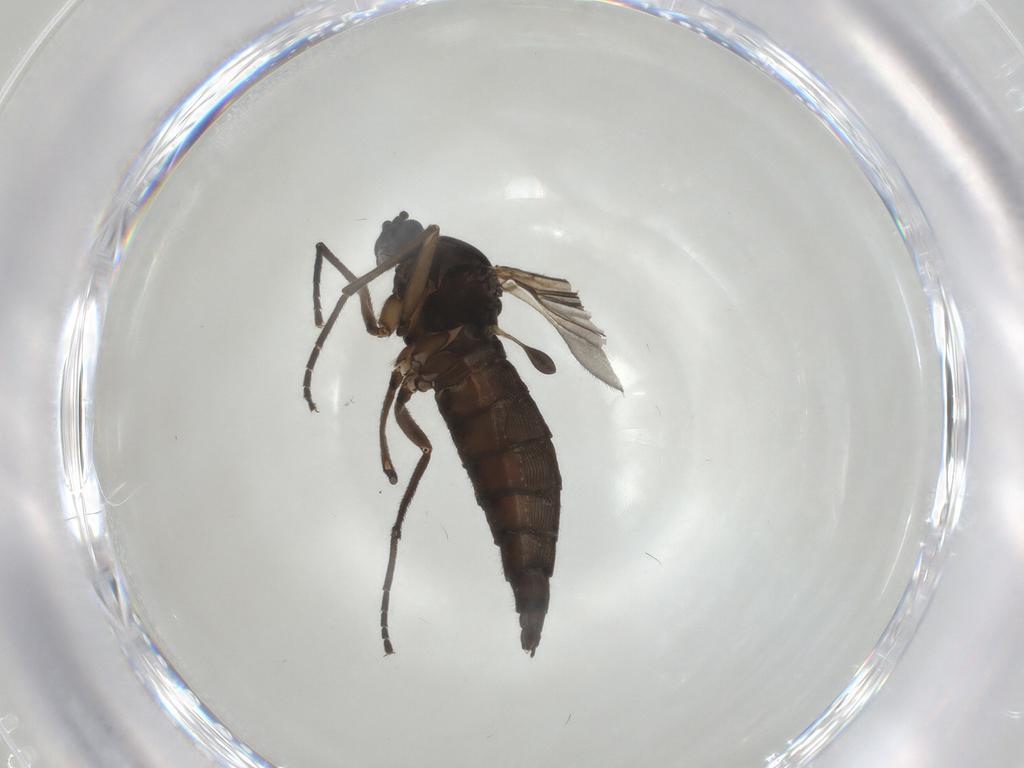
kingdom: Animalia
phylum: Arthropoda
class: Insecta
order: Diptera
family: Sciaridae
